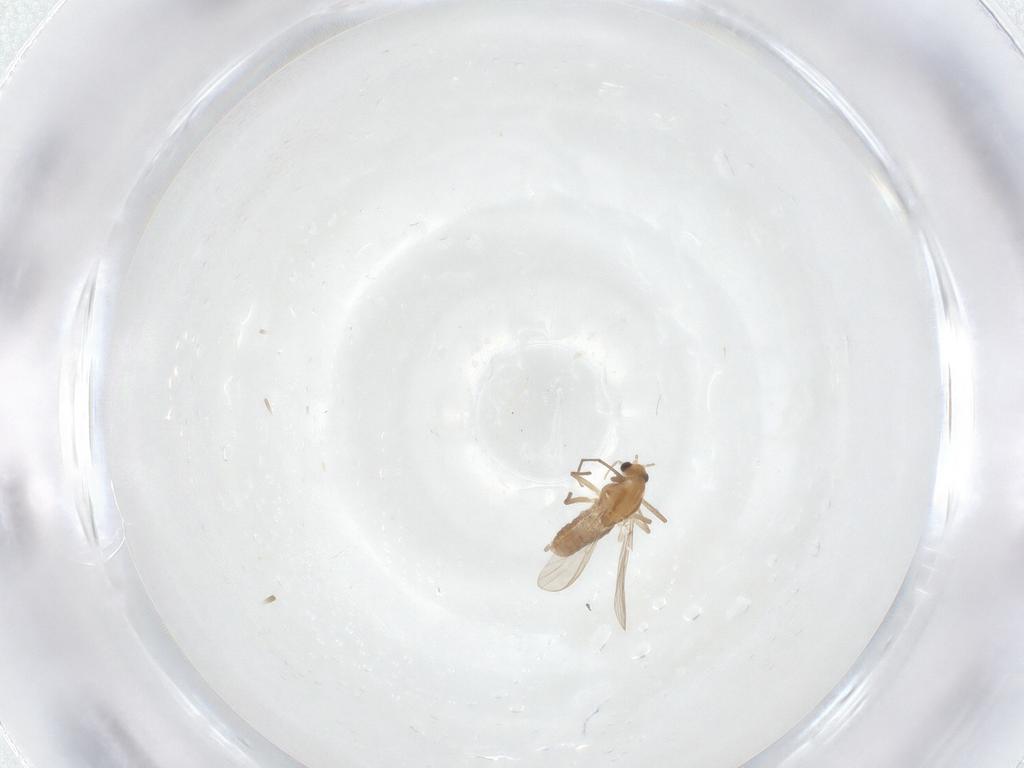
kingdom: Animalia
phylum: Arthropoda
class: Insecta
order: Diptera
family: Chironomidae
